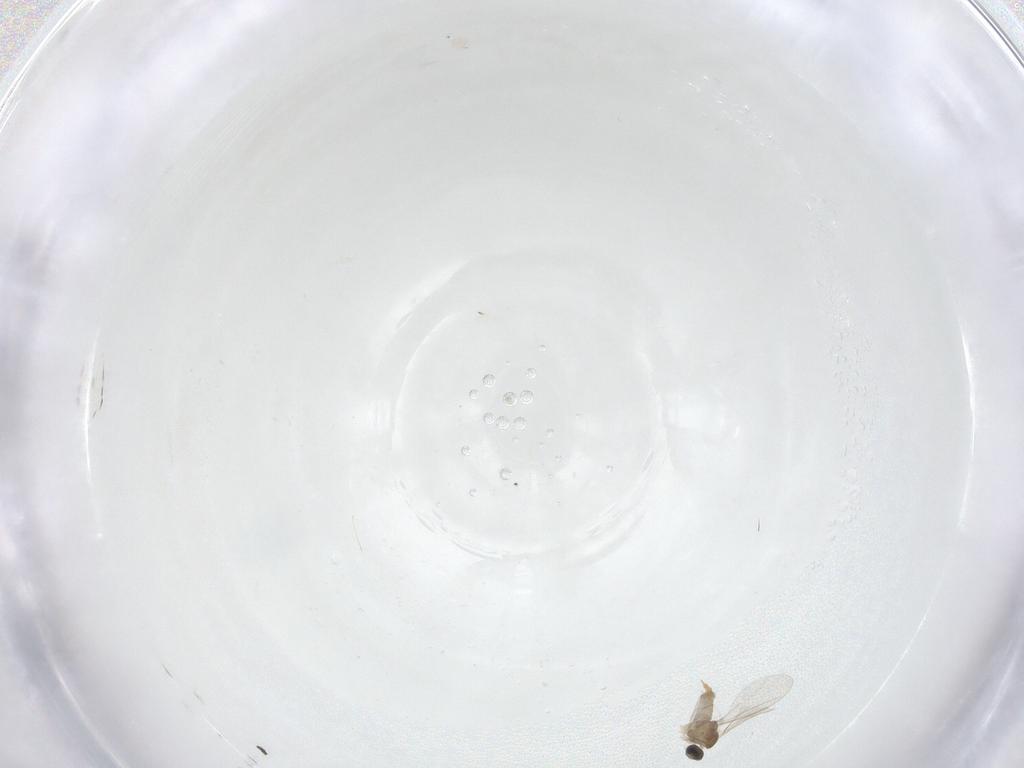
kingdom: Animalia
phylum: Arthropoda
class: Insecta
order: Diptera
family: Cecidomyiidae
